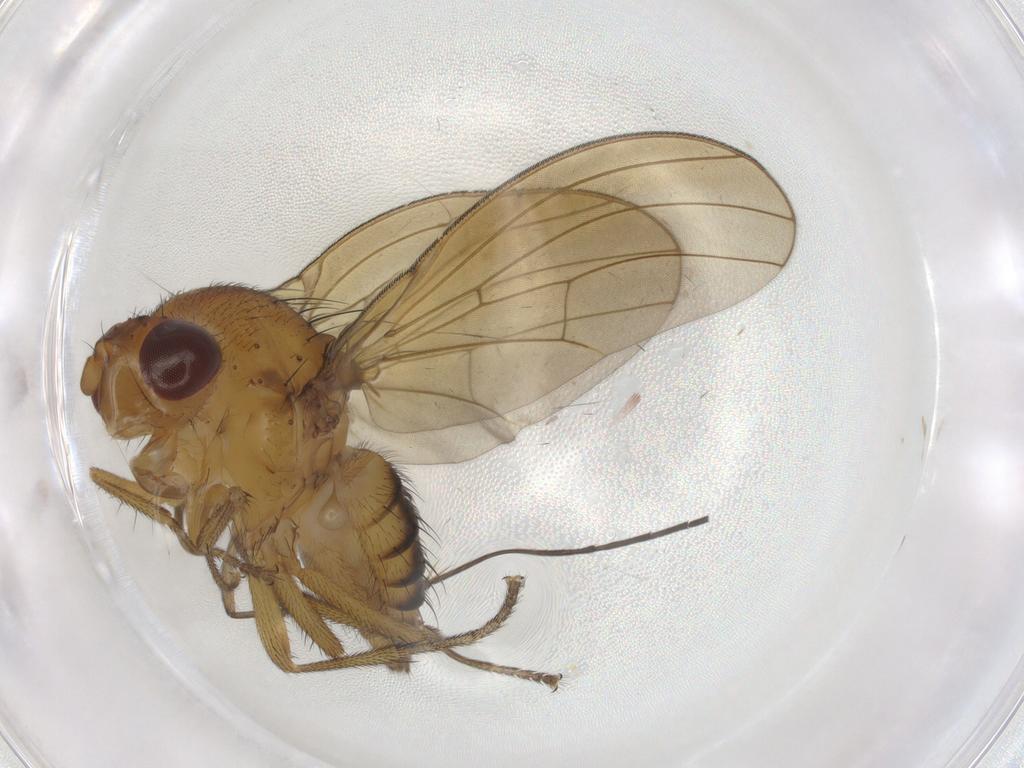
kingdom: Animalia
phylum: Arthropoda
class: Insecta
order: Diptera
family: Sciaridae
